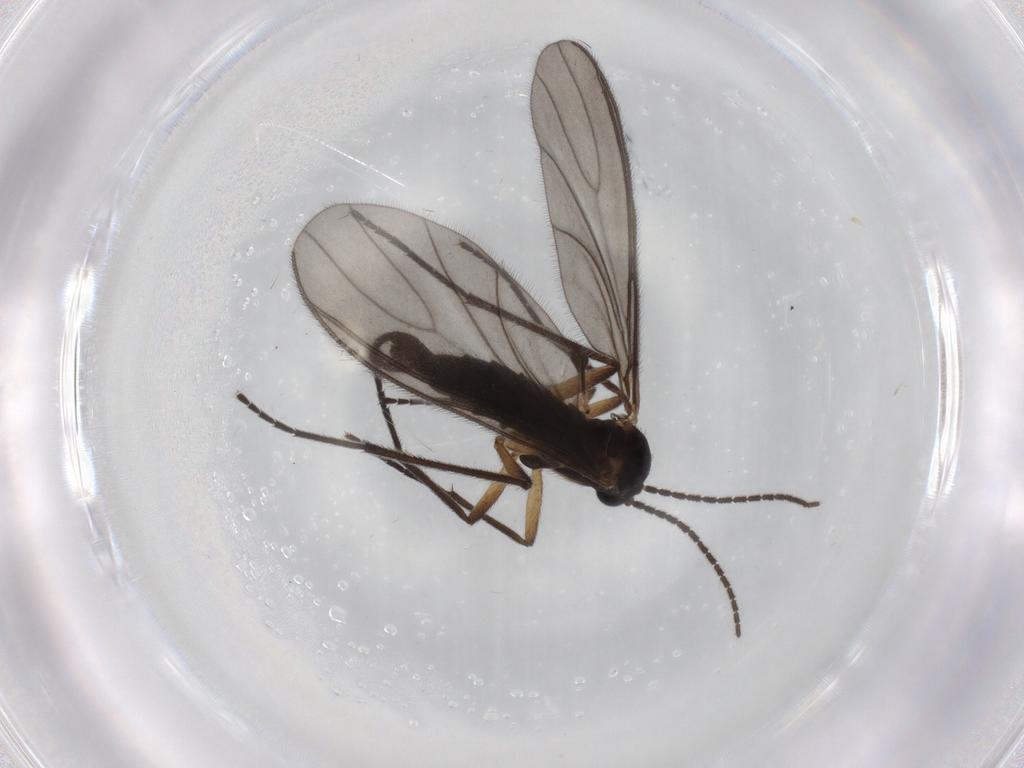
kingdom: Animalia
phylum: Arthropoda
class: Insecta
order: Diptera
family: Sciaridae
